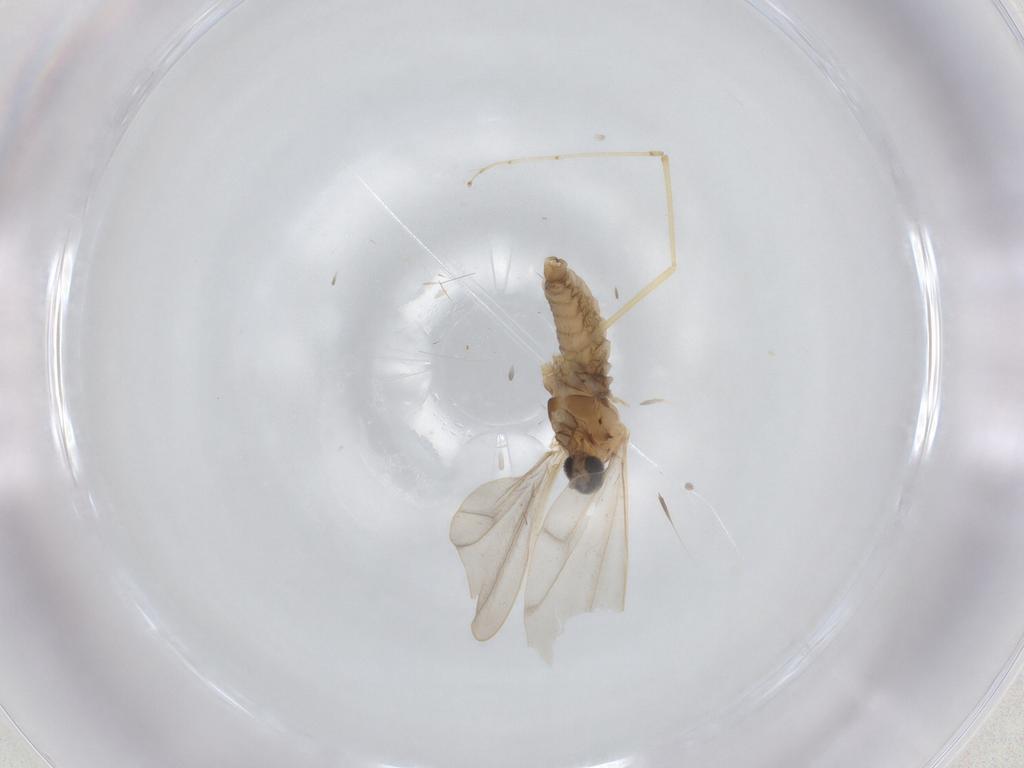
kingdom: Animalia
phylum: Arthropoda
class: Insecta
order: Diptera
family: Cecidomyiidae
